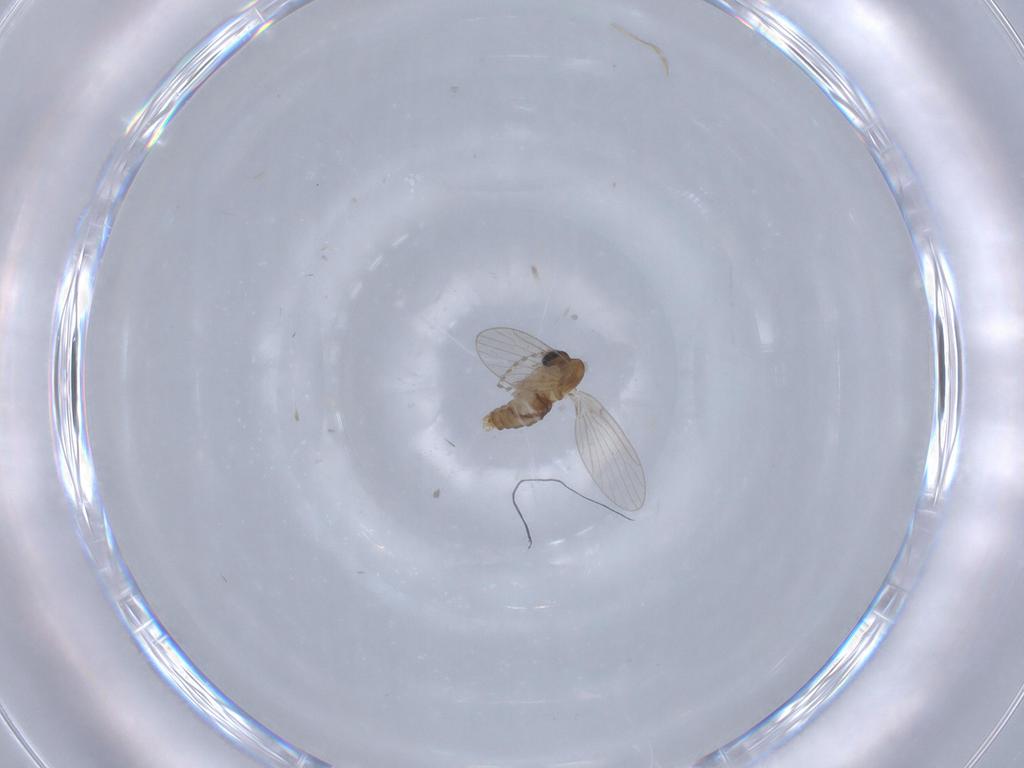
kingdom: Animalia
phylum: Arthropoda
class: Insecta
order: Diptera
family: Psychodidae
